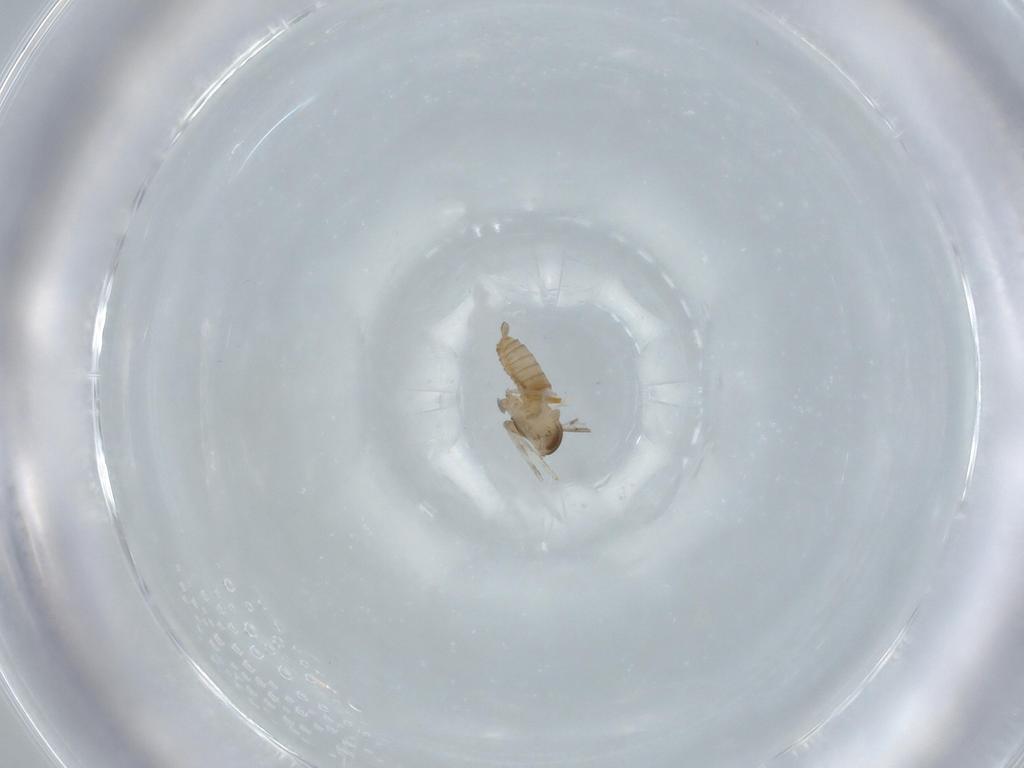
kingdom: Animalia
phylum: Arthropoda
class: Insecta
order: Diptera
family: Cecidomyiidae
